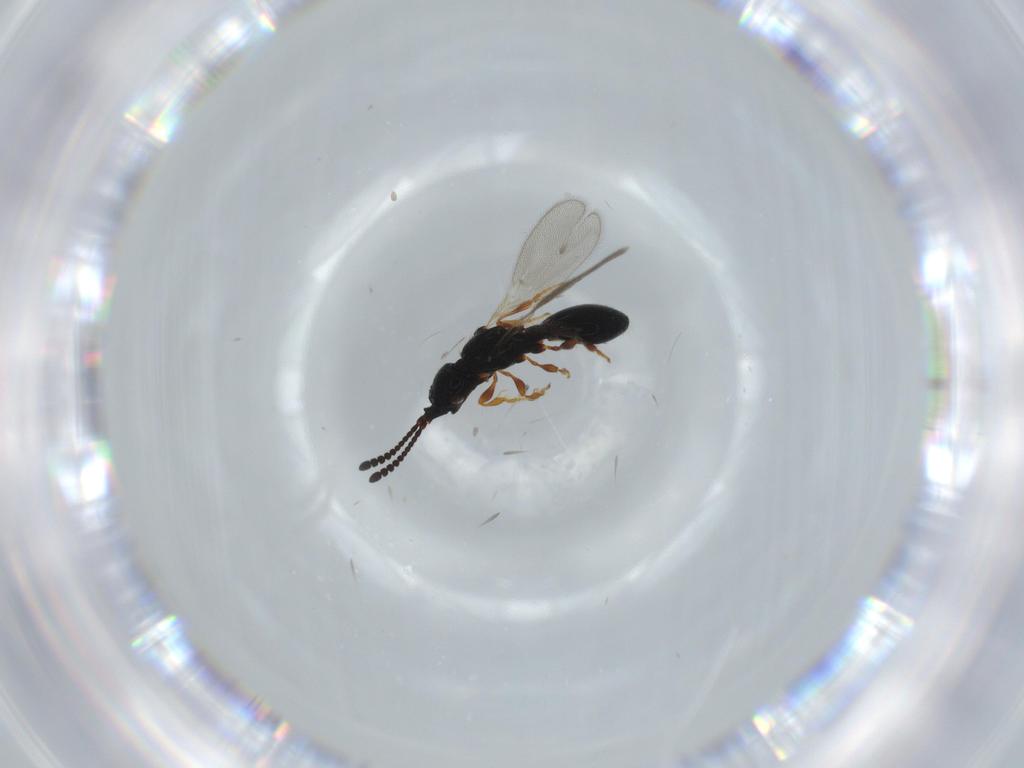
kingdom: Animalia
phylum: Arthropoda
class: Insecta
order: Hymenoptera
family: Diapriidae
